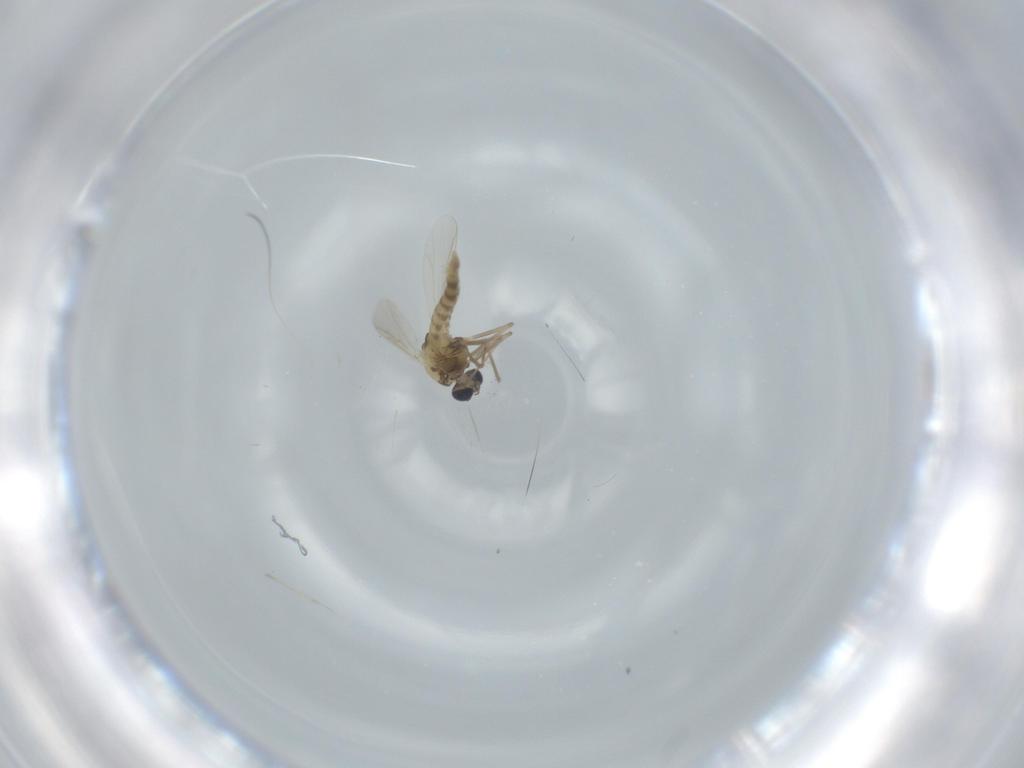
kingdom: Animalia
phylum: Arthropoda
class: Insecta
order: Diptera
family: Chironomidae
